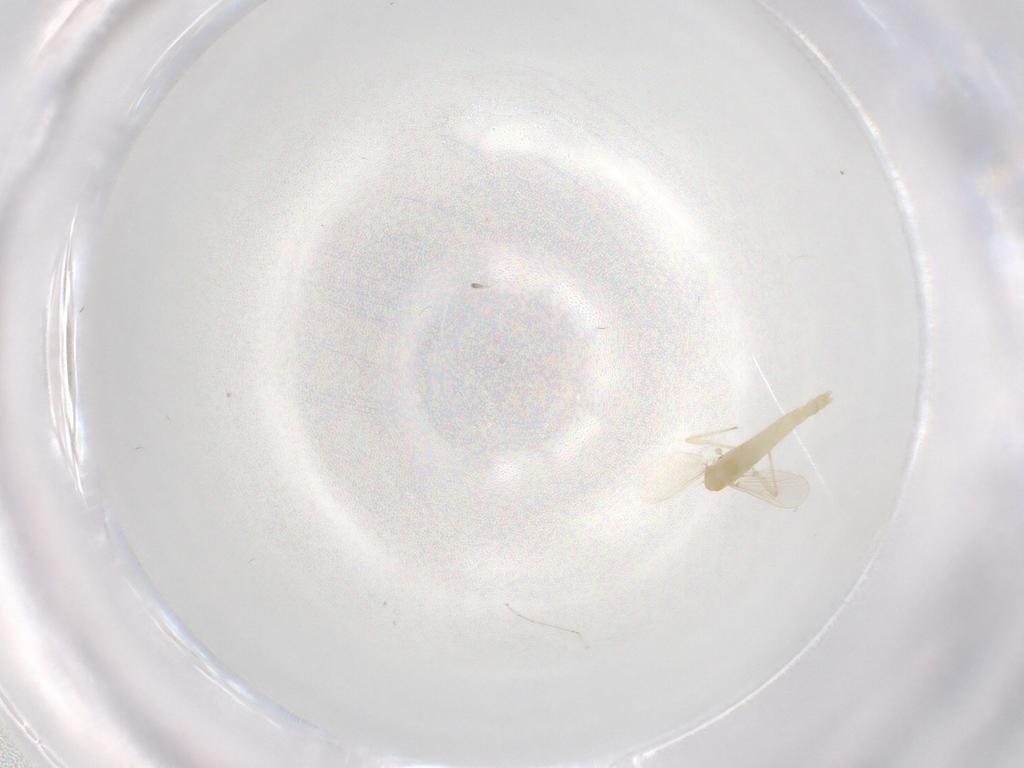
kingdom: Animalia
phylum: Arthropoda
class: Insecta
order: Diptera
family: Chironomidae
